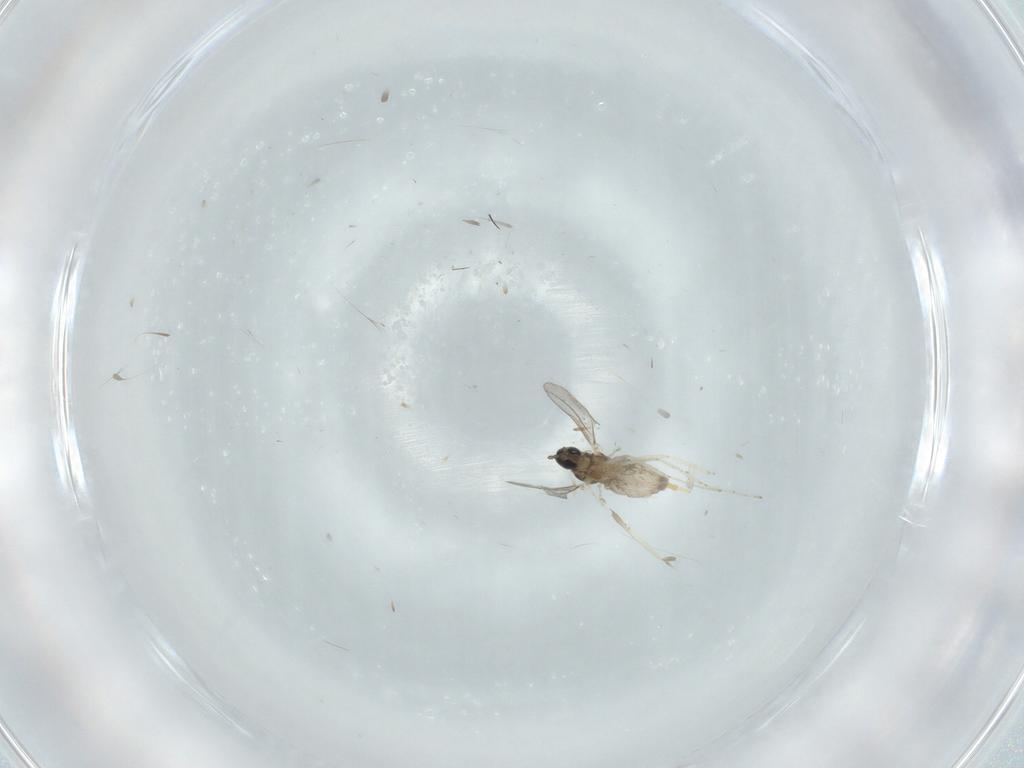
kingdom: Animalia
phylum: Arthropoda
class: Insecta
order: Diptera
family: Cecidomyiidae
